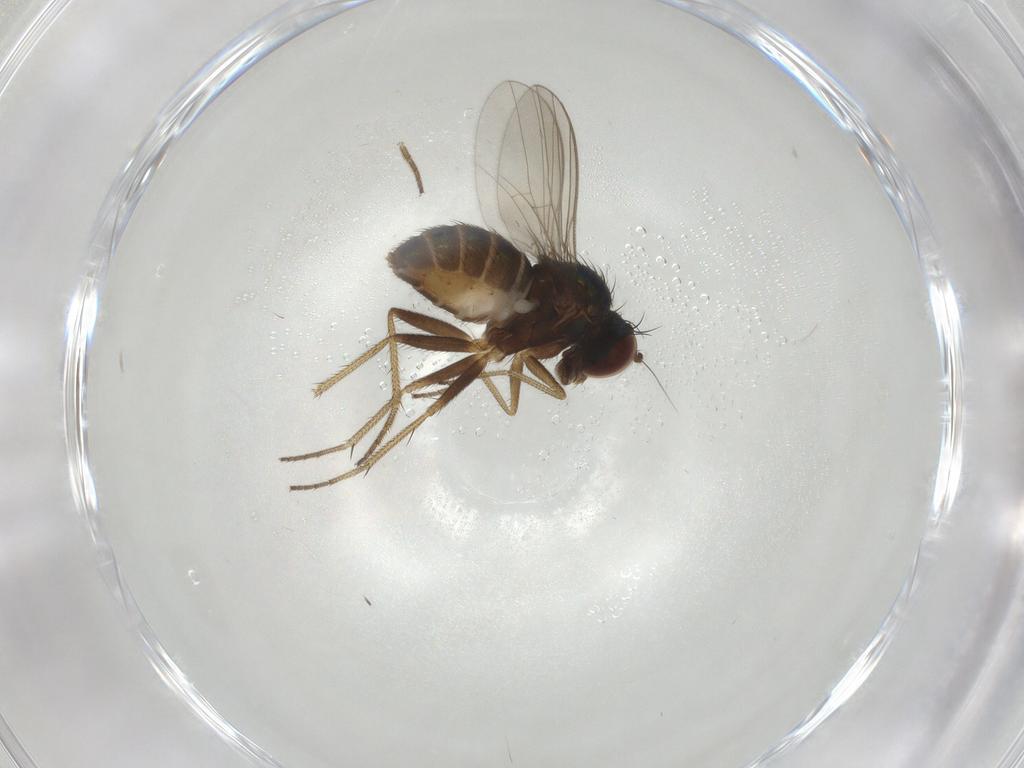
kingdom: Animalia
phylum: Arthropoda
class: Insecta
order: Diptera
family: Dolichopodidae
